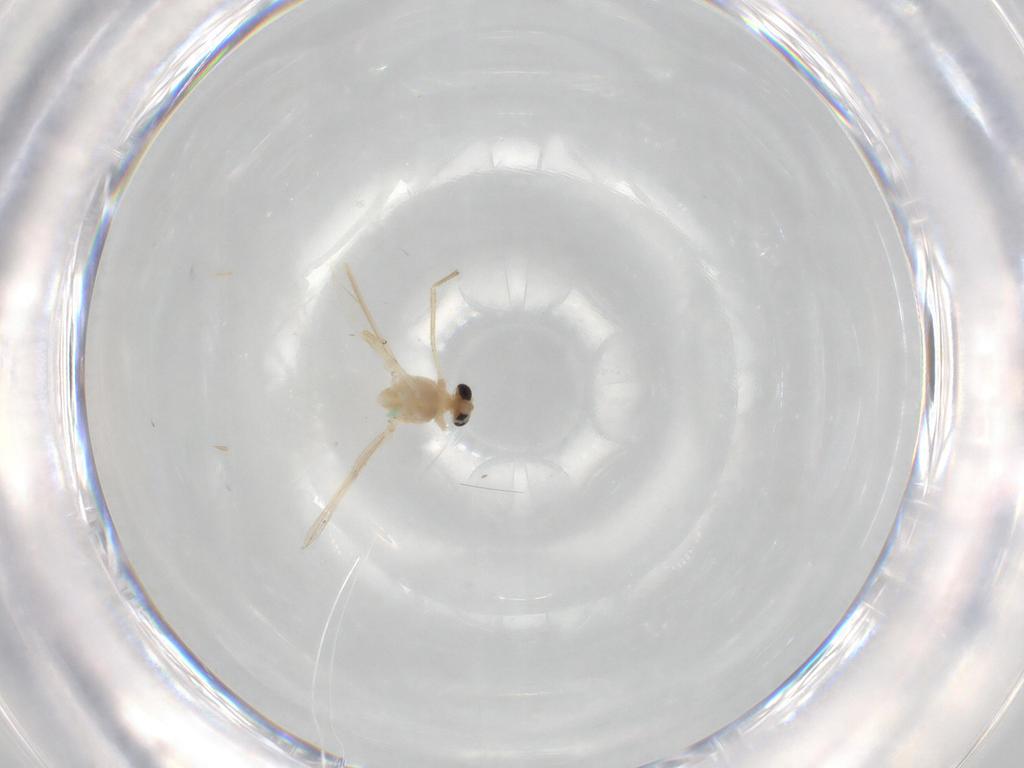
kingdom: Animalia
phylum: Arthropoda
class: Insecta
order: Diptera
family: Chironomidae
